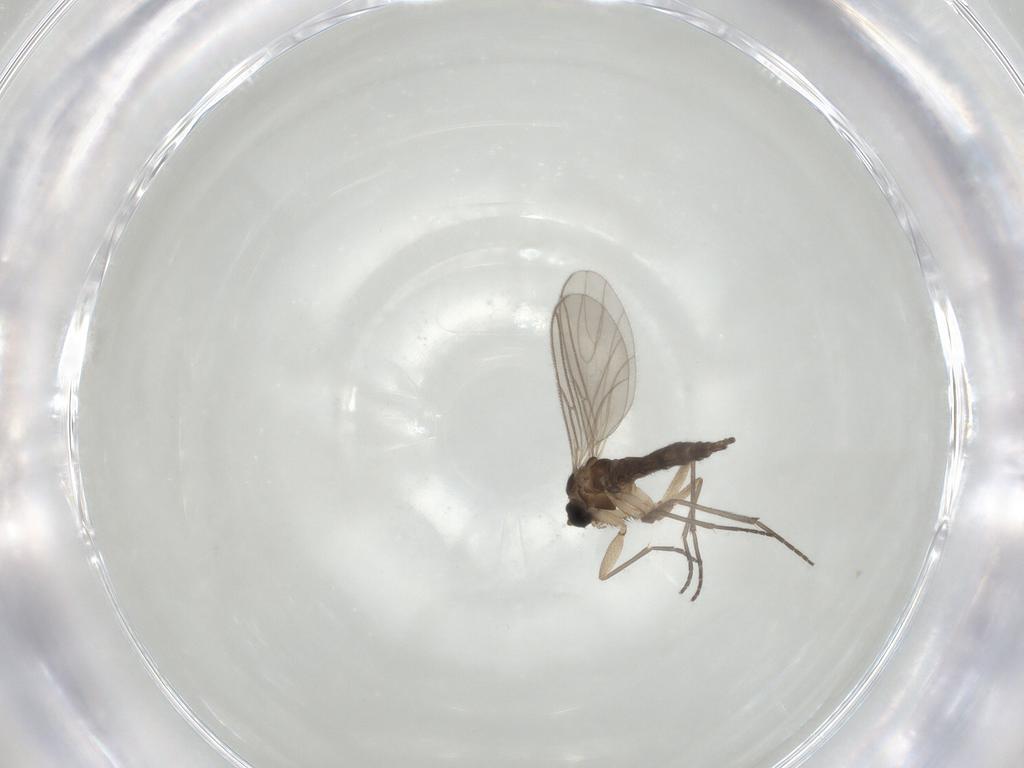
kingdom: Animalia
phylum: Arthropoda
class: Insecta
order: Diptera
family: Sciaridae
